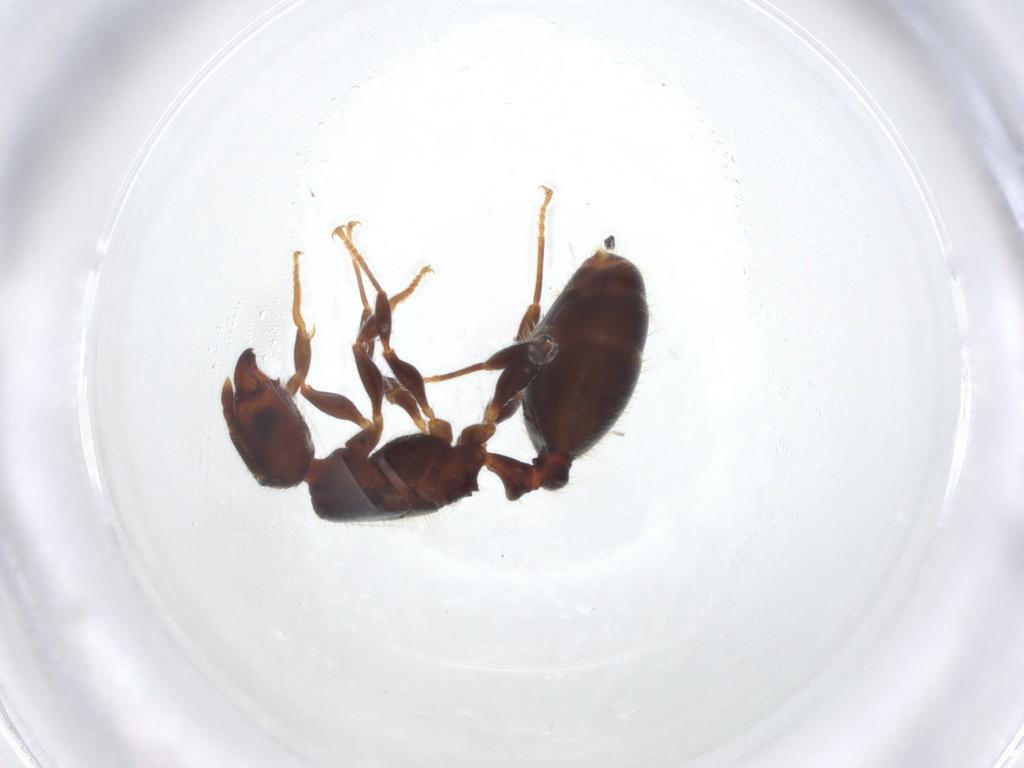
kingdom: Animalia
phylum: Arthropoda
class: Insecta
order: Hymenoptera
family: Formicidae
